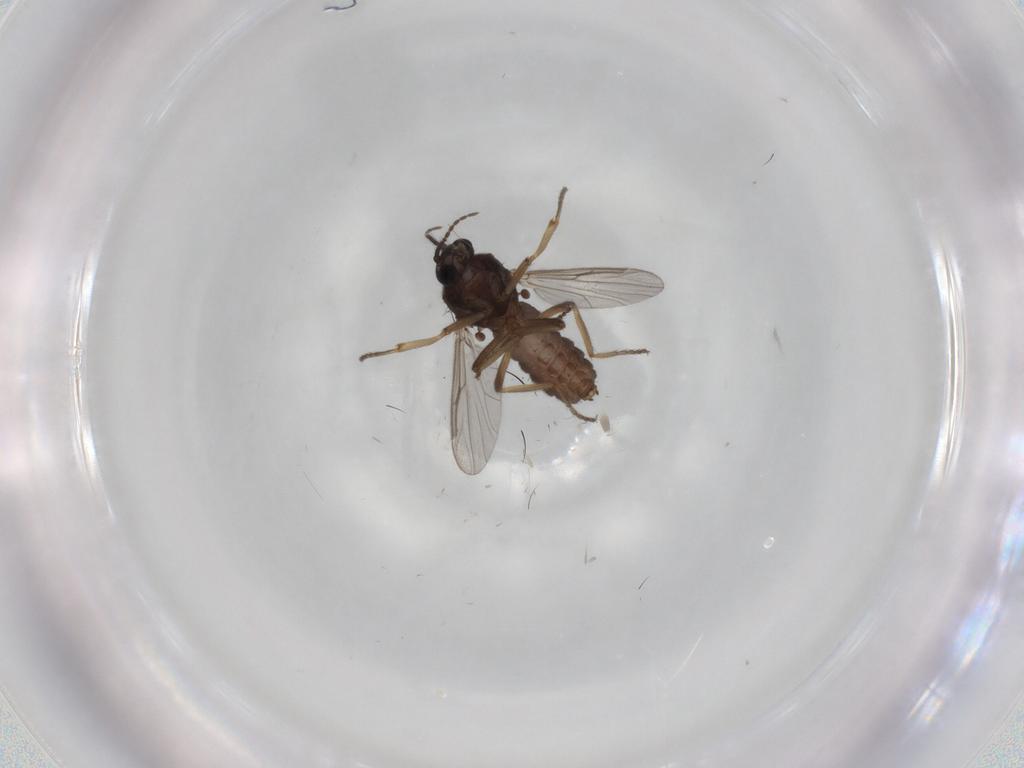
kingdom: Animalia
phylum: Arthropoda
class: Insecta
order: Diptera
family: Ceratopogonidae
